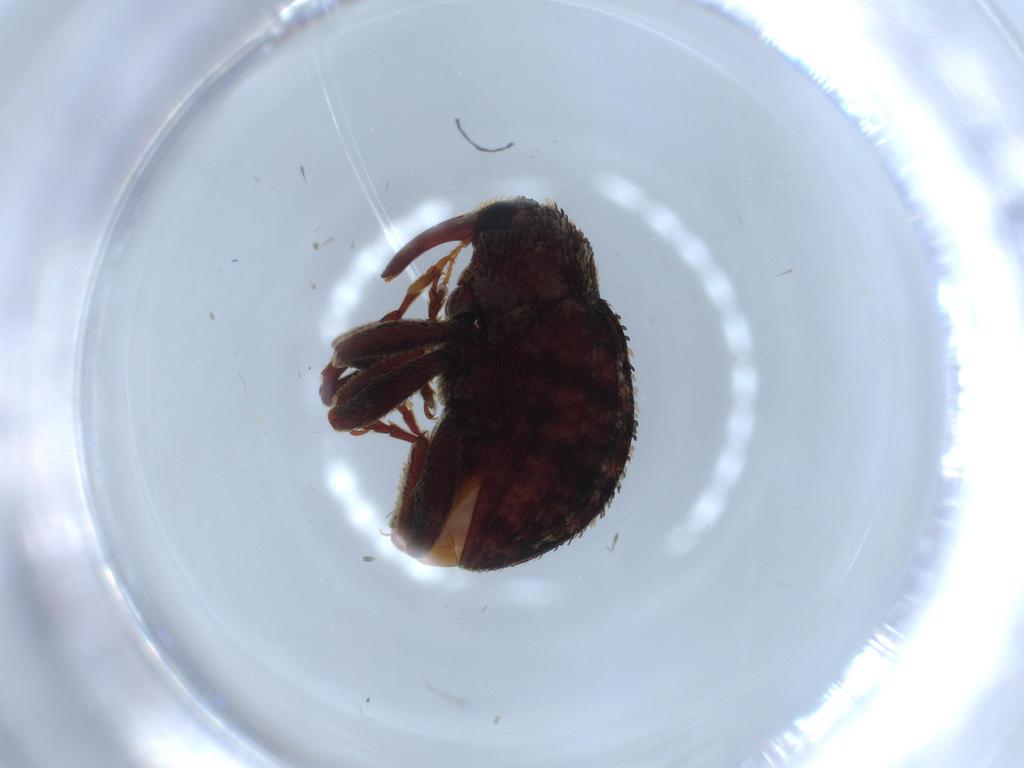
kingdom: Animalia
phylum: Arthropoda
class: Insecta
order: Coleoptera
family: Curculionidae
